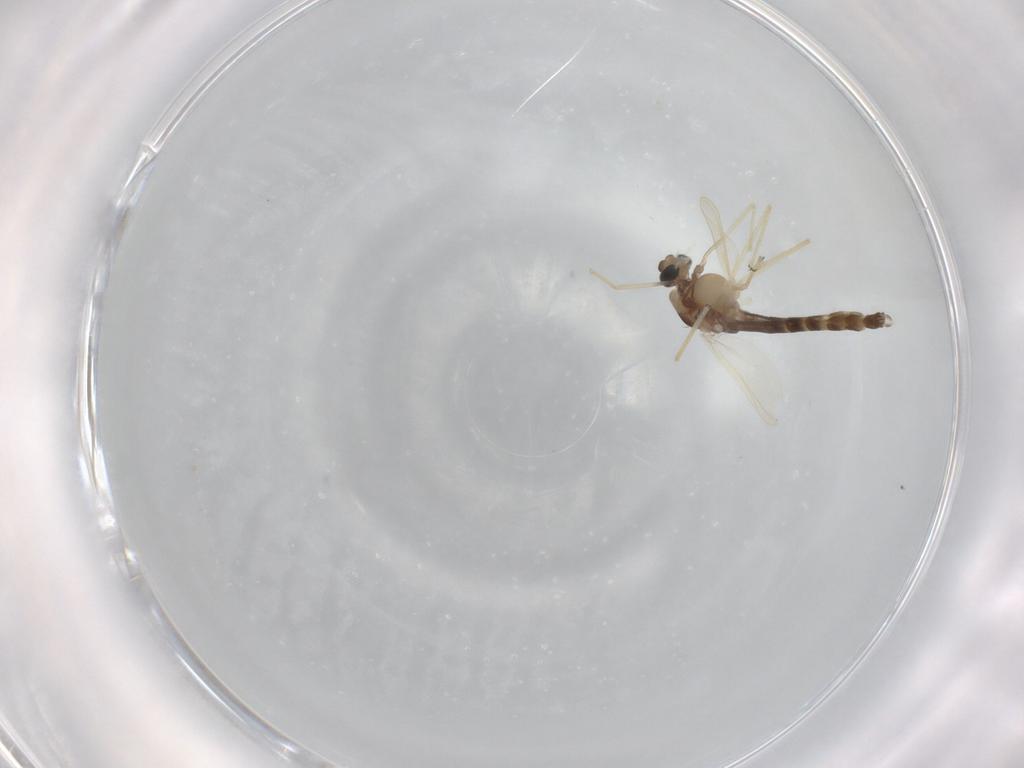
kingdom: Animalia
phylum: Arthropoda
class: Insecta
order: Diptera
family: Chironomidae
